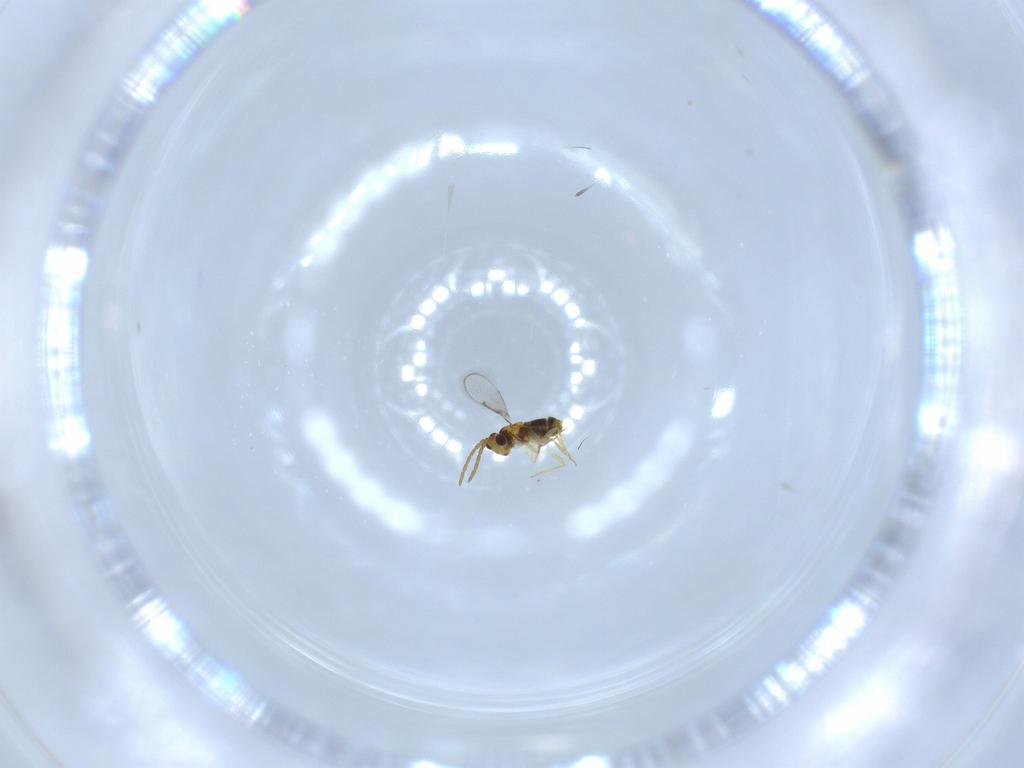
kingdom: Animalia
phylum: Arthropoda
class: Insecta
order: Hymenoptera
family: Aphelinidae
